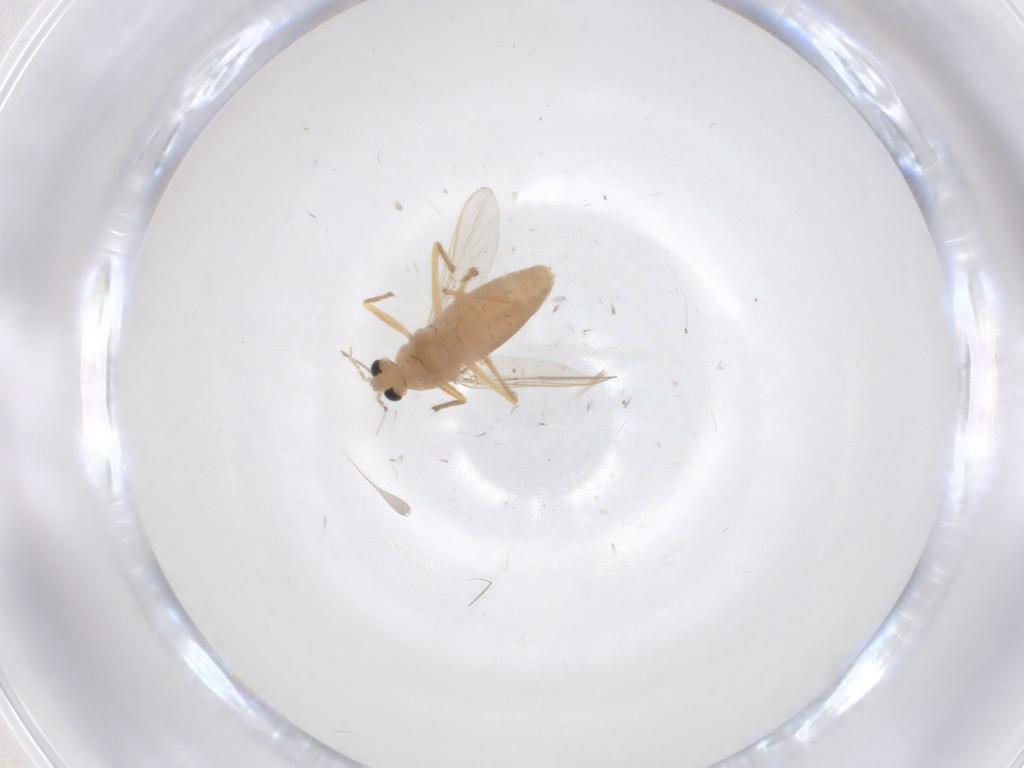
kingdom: Animalia
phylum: Arthropoda
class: Insecta
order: Diptera
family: Chironomidae
